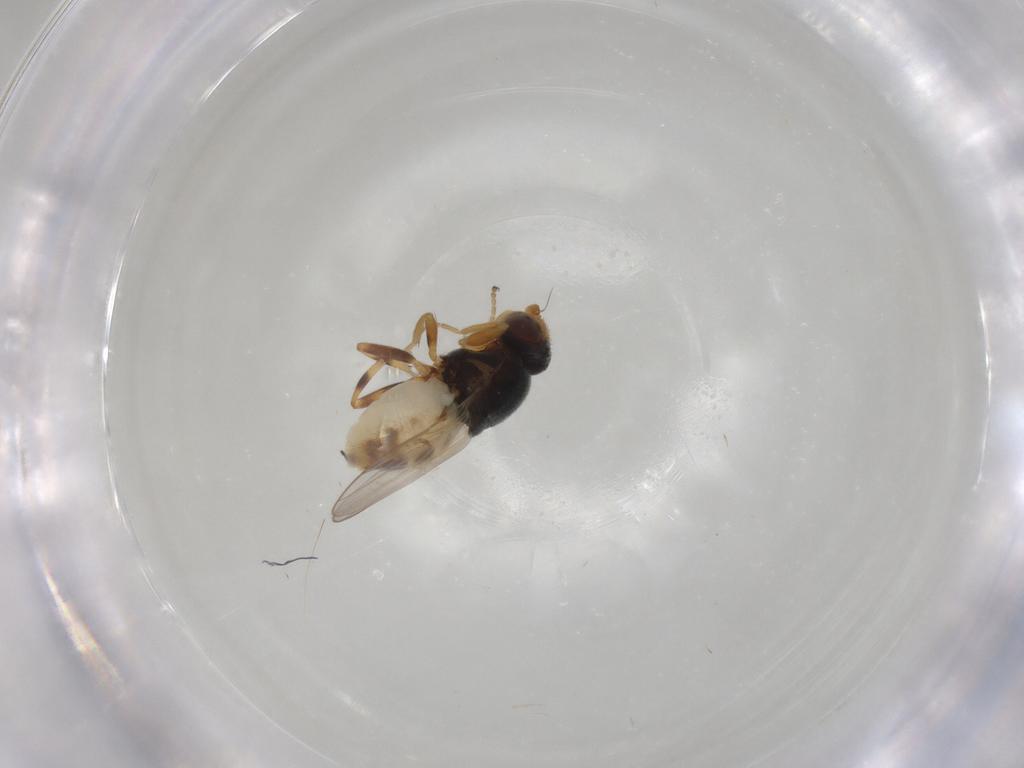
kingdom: Animalia
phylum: Arthropoda
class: Insecta
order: Diptera
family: Chloropidae
